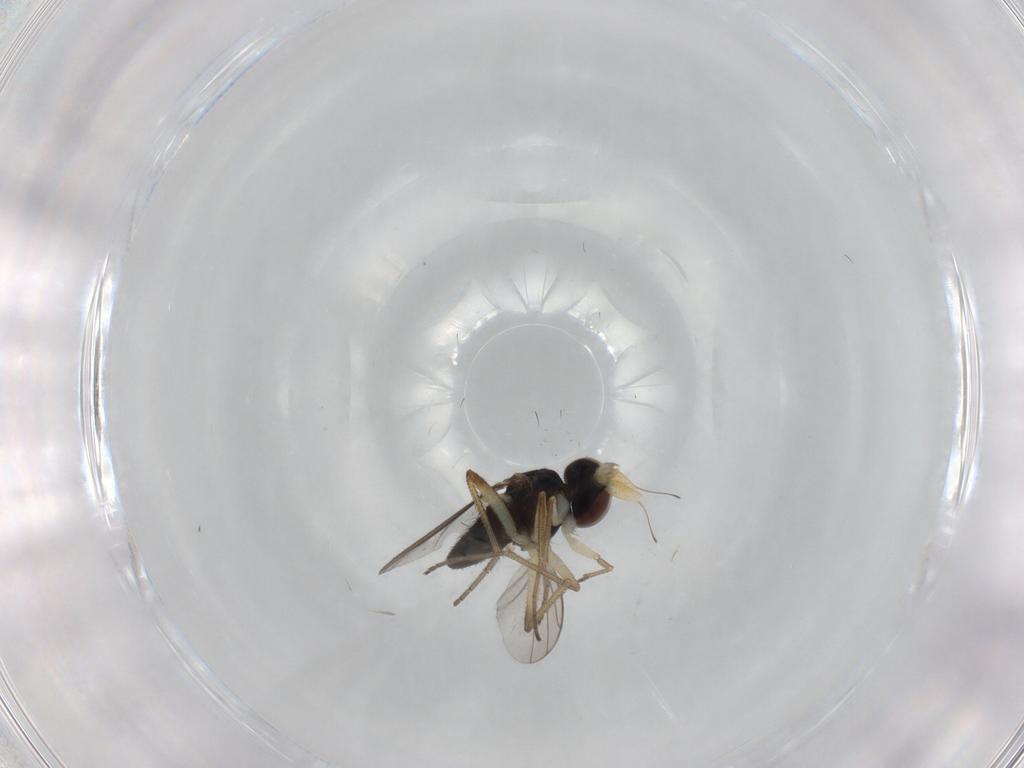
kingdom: Animalia
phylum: Arthropoda
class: Insecta
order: Diptera
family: Dolichopodidae
